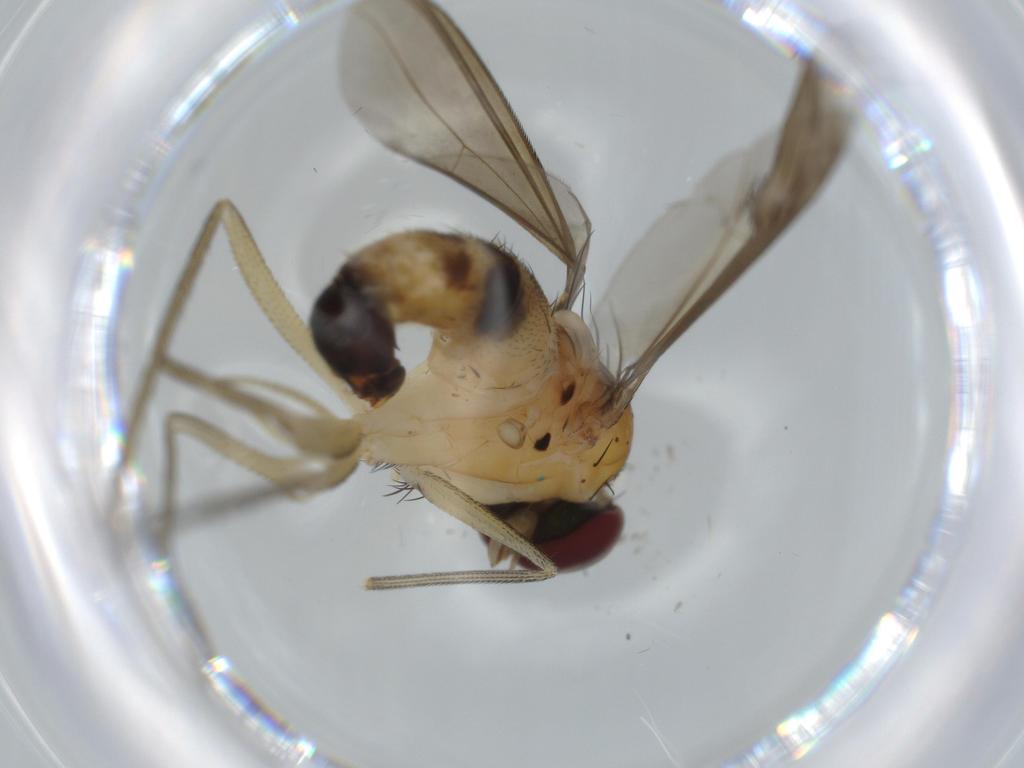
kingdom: Animalia
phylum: Arthropoda
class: Insecta
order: Diptera
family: Dolichopodidae
